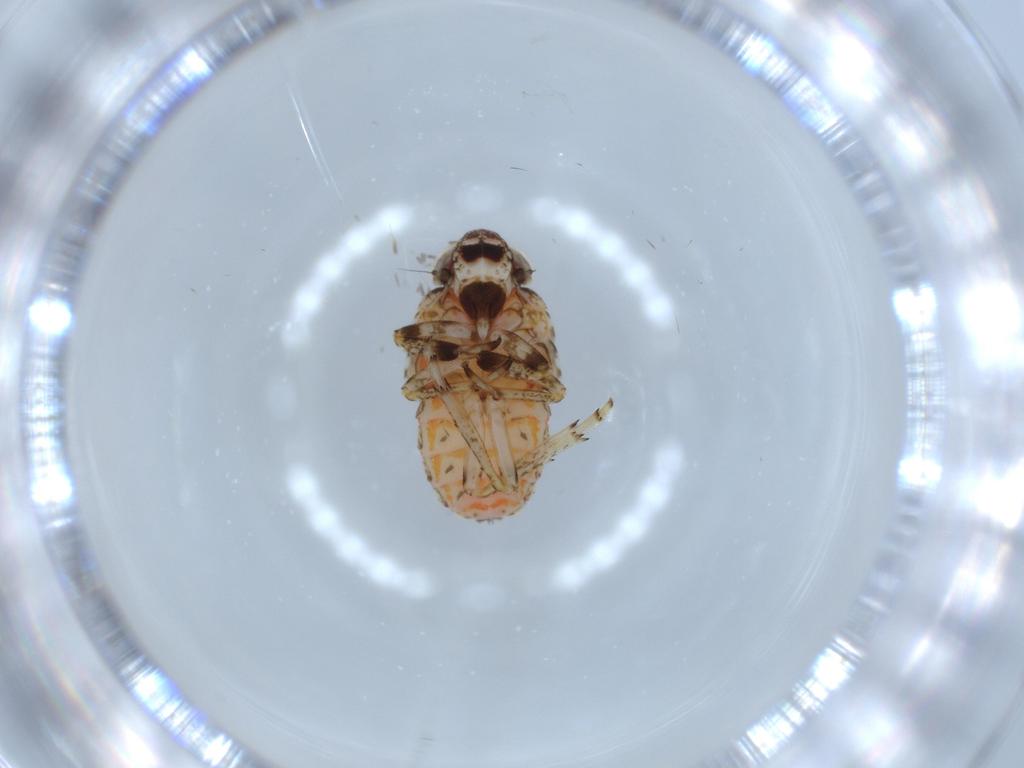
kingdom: Animalia
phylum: Arthropoda
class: Insecta
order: Hemiptera
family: Issidae
